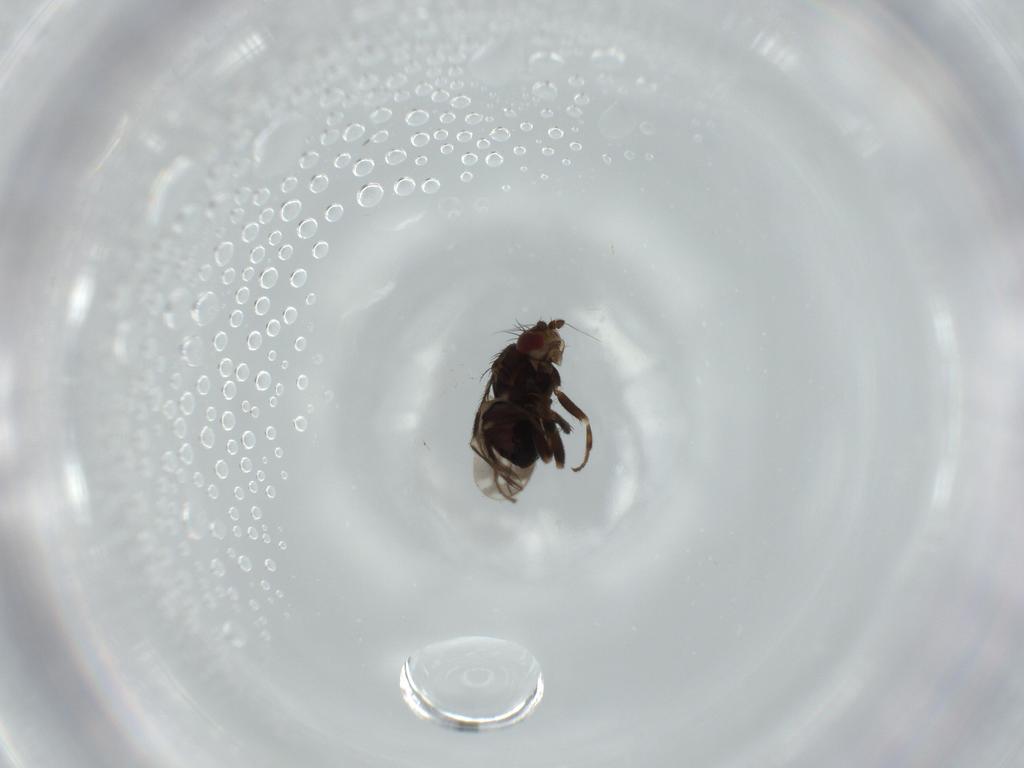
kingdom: Animalia
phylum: Arthropoda
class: Insecta
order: Diptera
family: Sphaeroceridae
